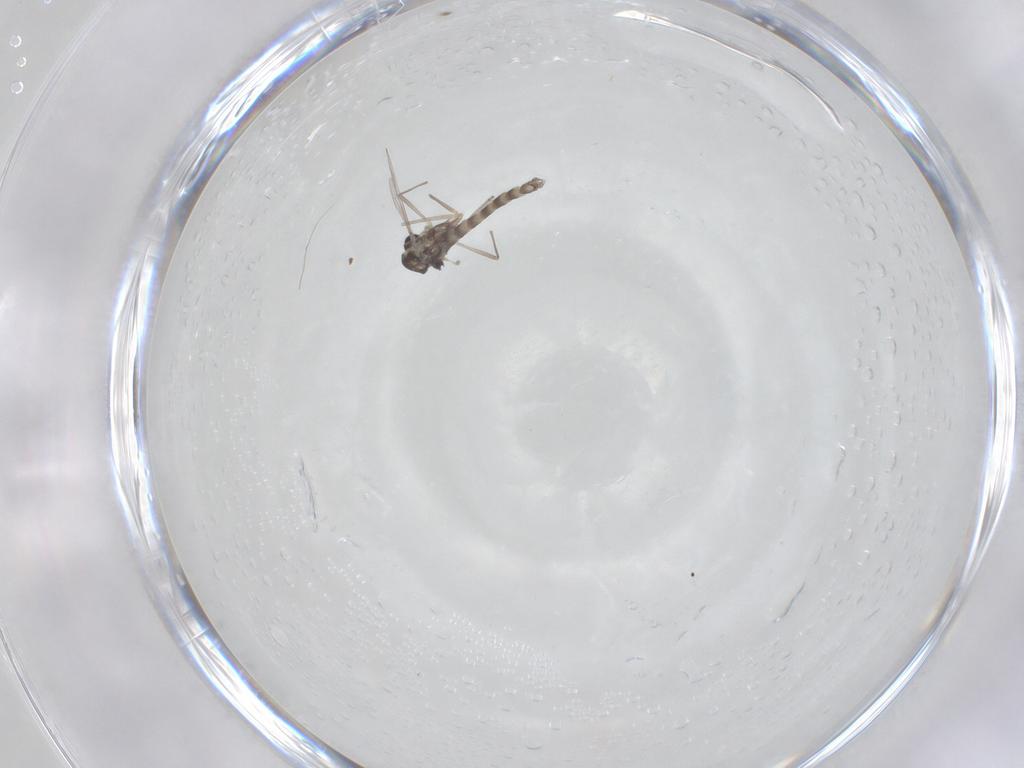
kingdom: Animalia
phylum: Arthropoda
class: Insecta
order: Diptera
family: Chironomidae
